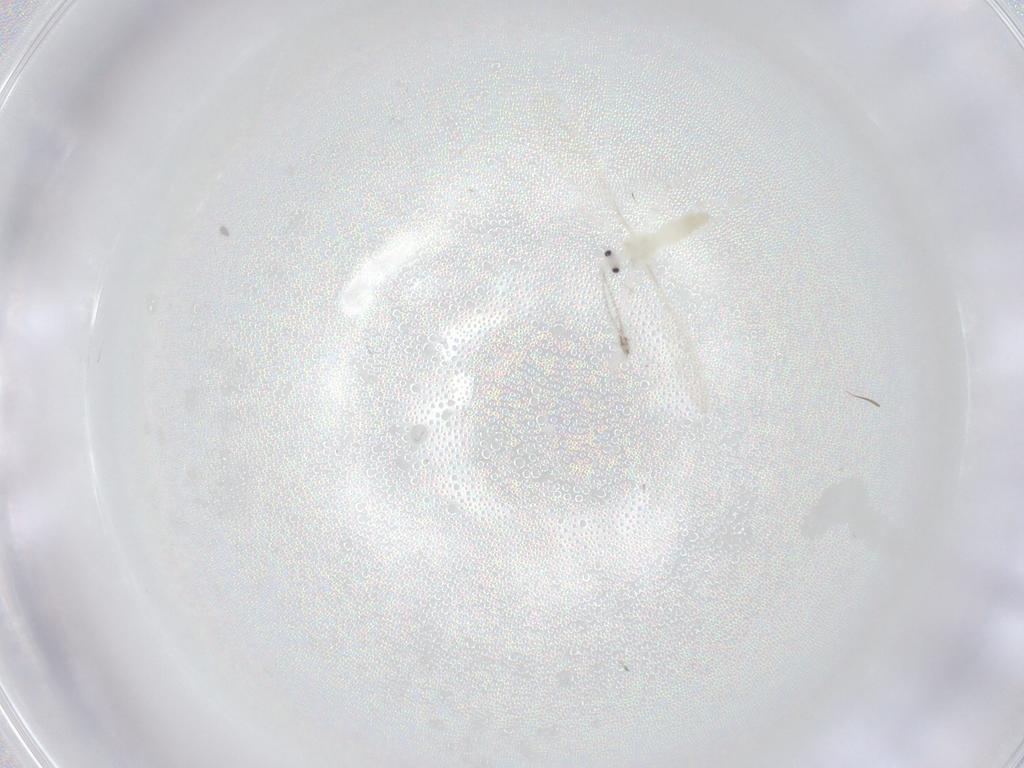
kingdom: Animalia
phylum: Arthropoda
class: Insecta
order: Diptera
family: Cecidomyiidae
